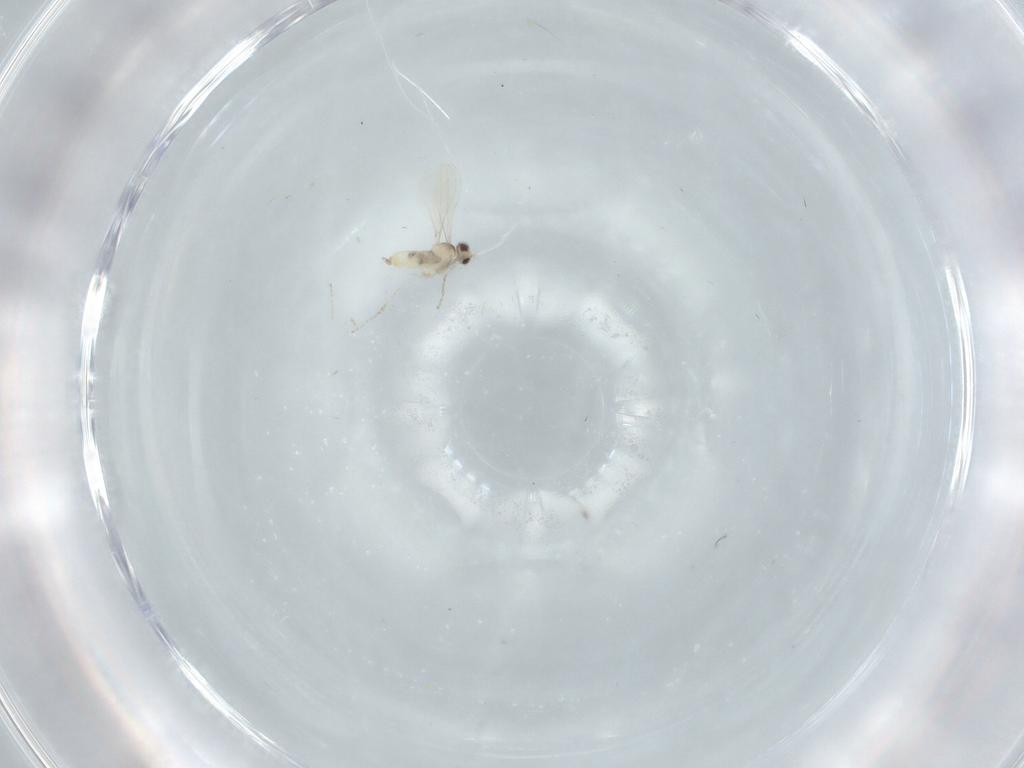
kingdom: Animalia
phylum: Arthropoda
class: Insecta
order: Diptera
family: Cecidomyiidae
